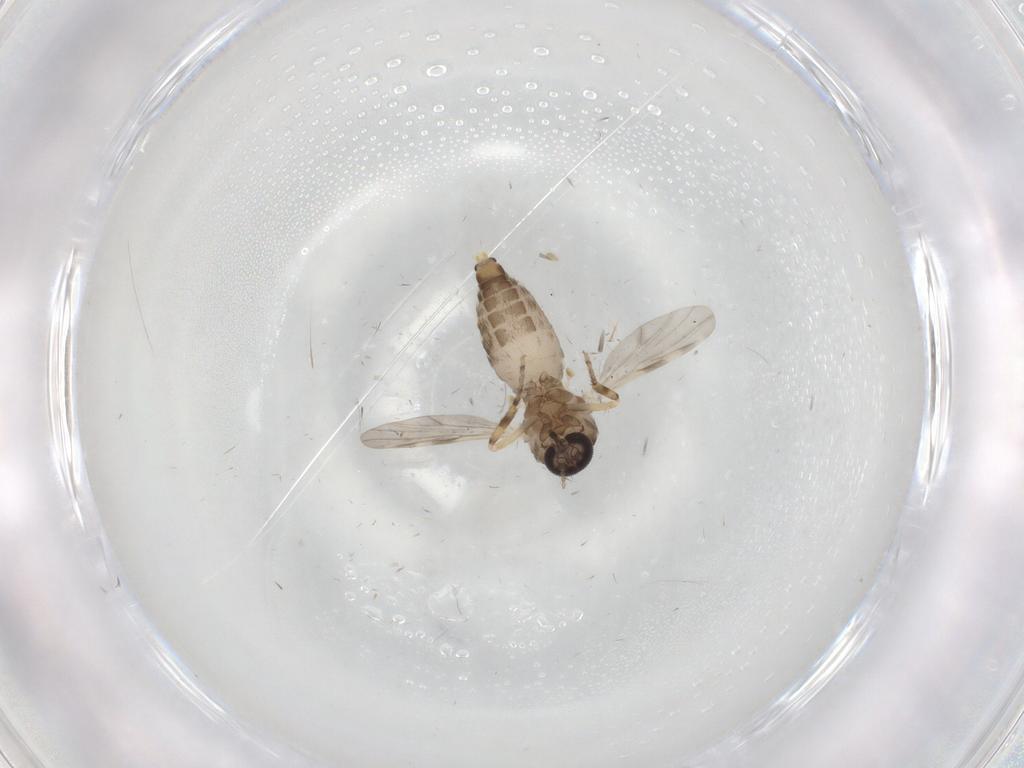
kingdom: Animalia
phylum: Arthropoda
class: Insecta
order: Diptera
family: Ceratopogonidae
